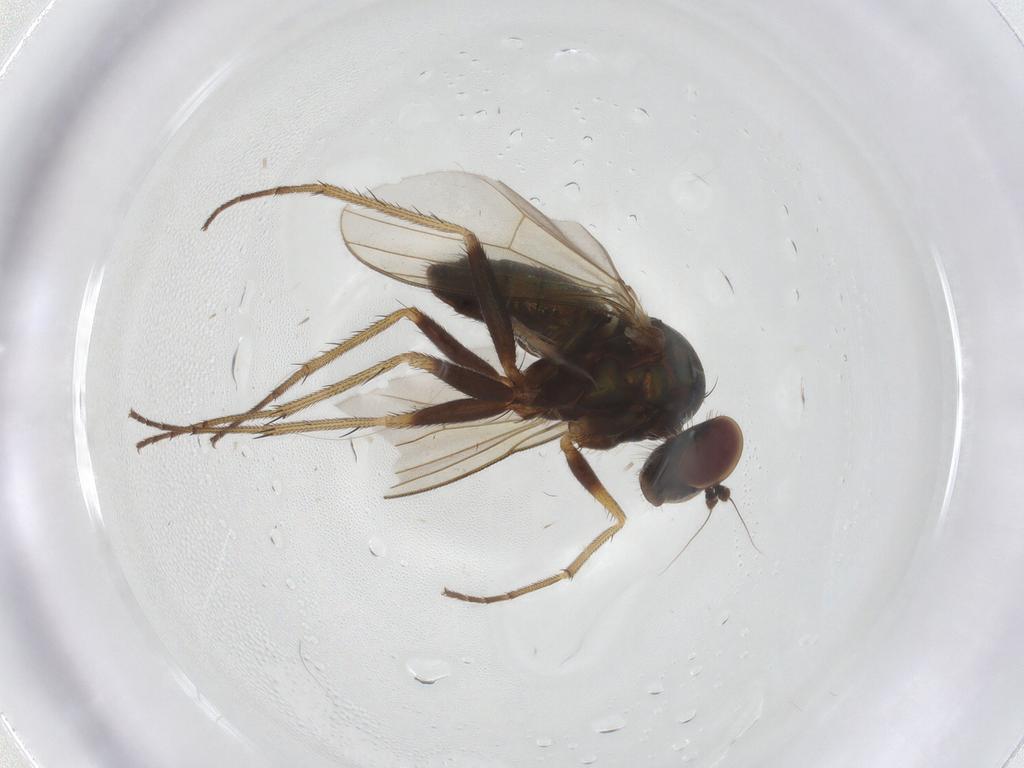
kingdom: Animalia
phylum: Arthropoda
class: Insecta
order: Diptera
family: Dolichopodidae
